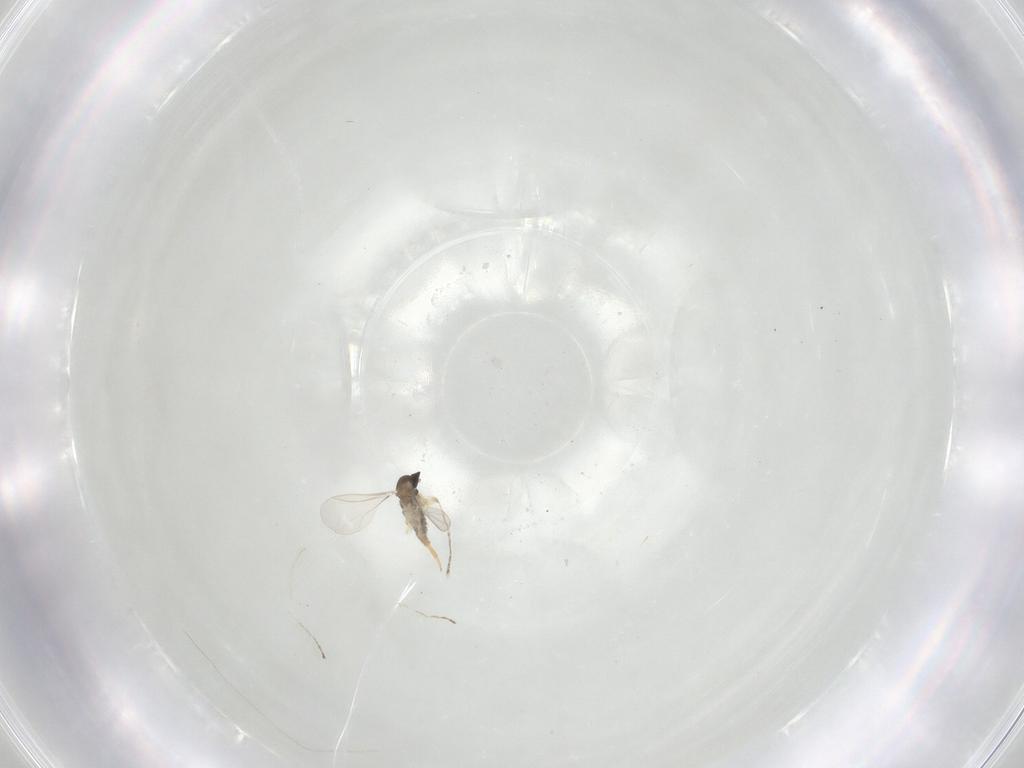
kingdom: Animalia
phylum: Arthropoda
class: Insecta
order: Diptera
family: Cecidomyiidae
